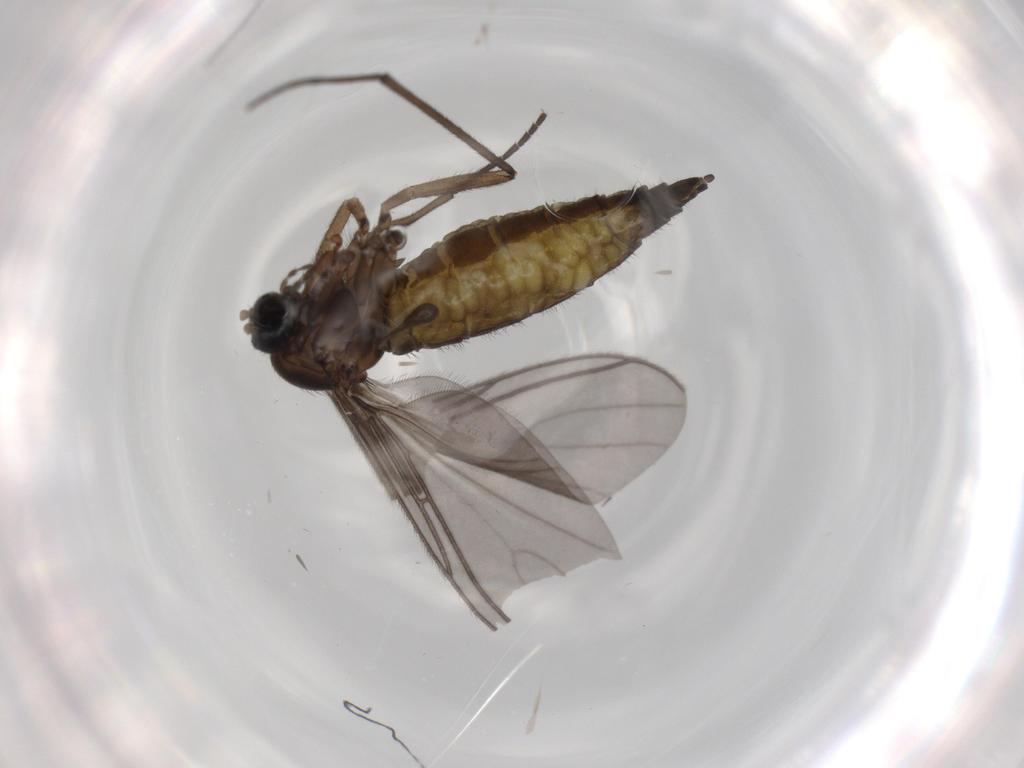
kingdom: Animalia
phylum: Arthropoda
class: Insecta
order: Diptera
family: Sciaridae
